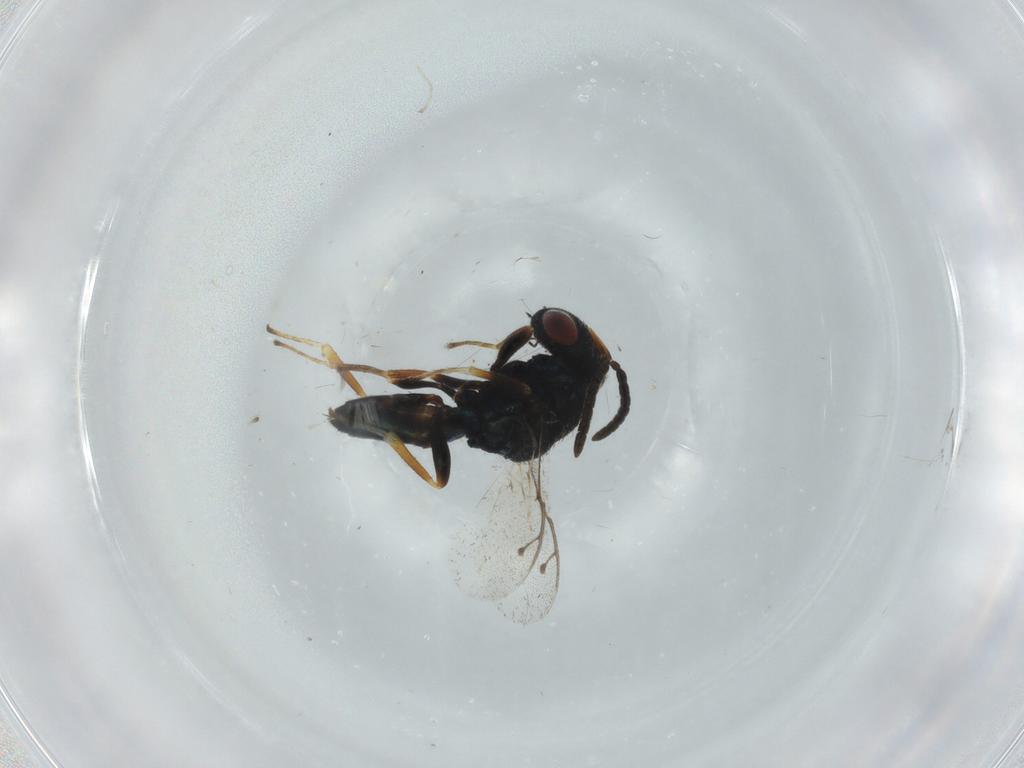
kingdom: Animalia
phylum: Arthropoda
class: Insecta
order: Hymenoptera
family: Pteromalidae
